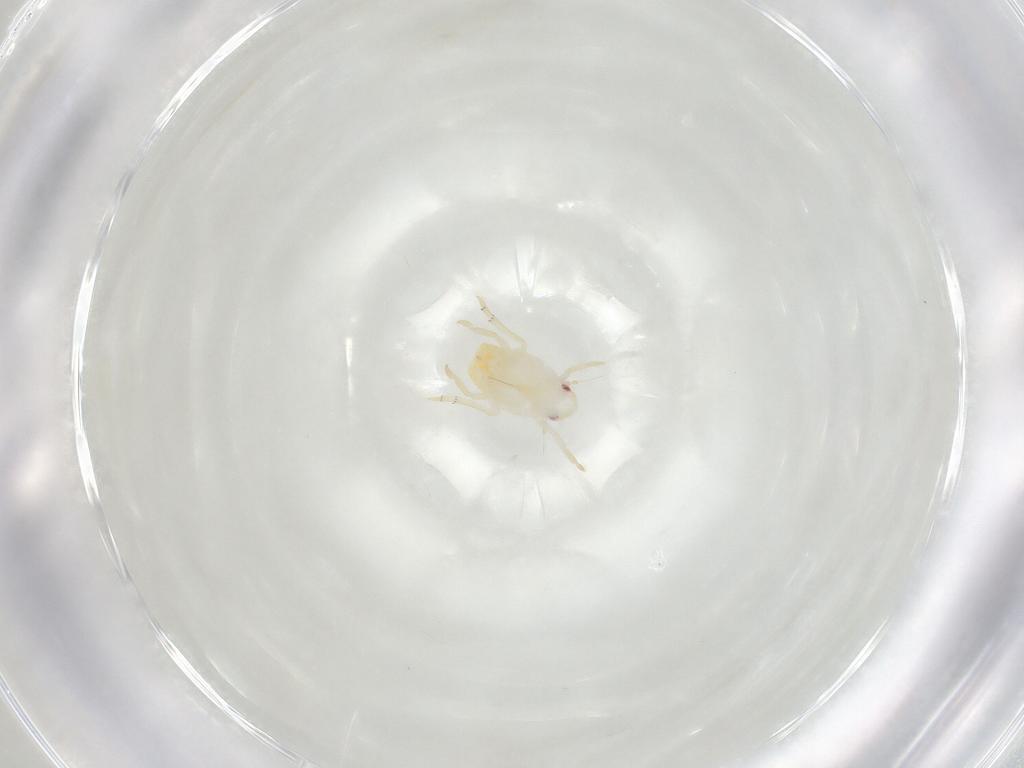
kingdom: Animalia
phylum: Arthropoda
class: Insecta
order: Hemiptera
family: Flatidae
